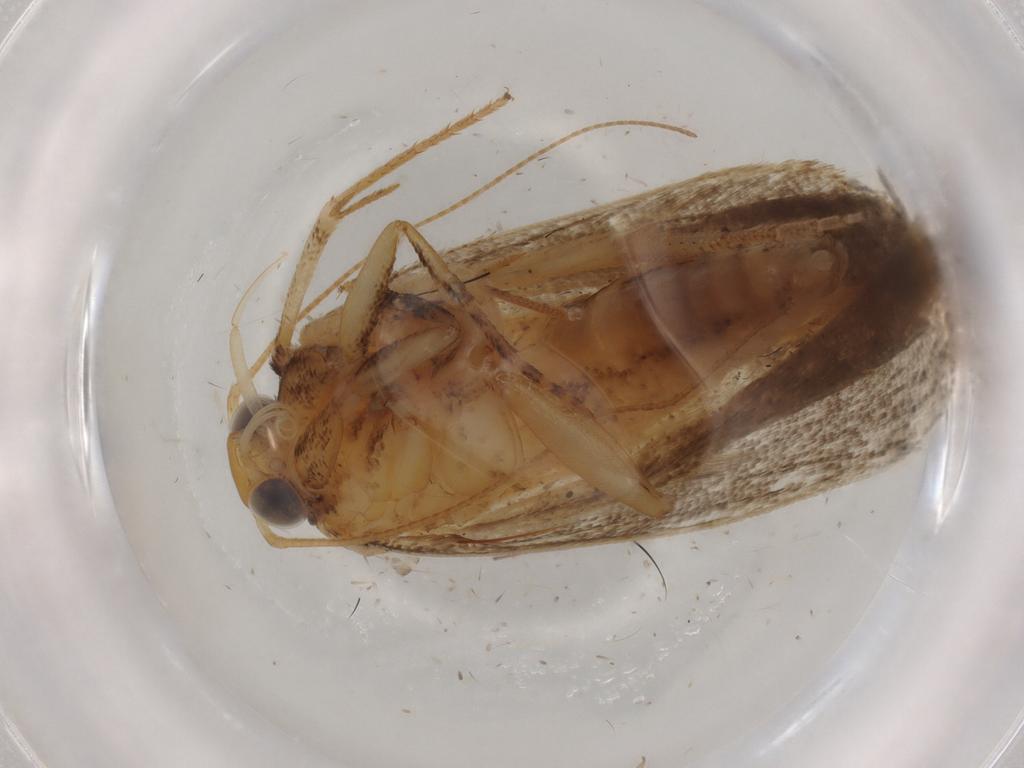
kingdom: Animalia
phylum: Arthropoda
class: Insecta
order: Lepidoptera
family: Gelechiidae
